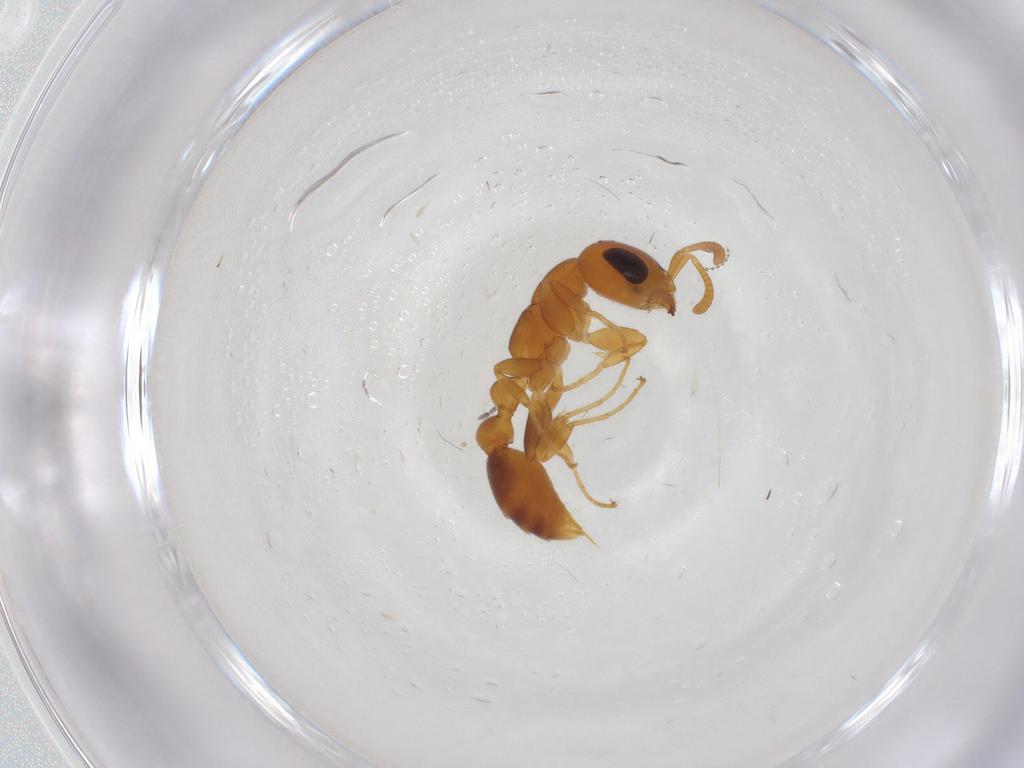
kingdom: Animalia
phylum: Arthropoda
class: Insecta
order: Hymenoptera
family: Formicidae
